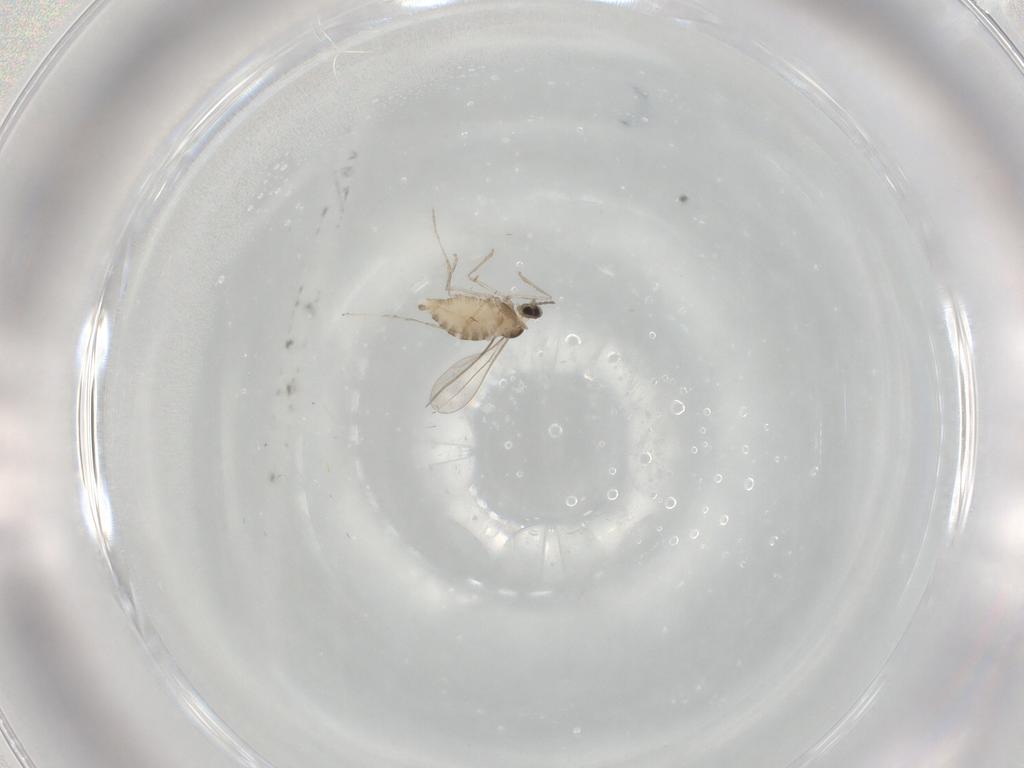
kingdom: Animalia
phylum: Arthropoda
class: Insecta
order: Diptera
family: Cecidomyiidae
